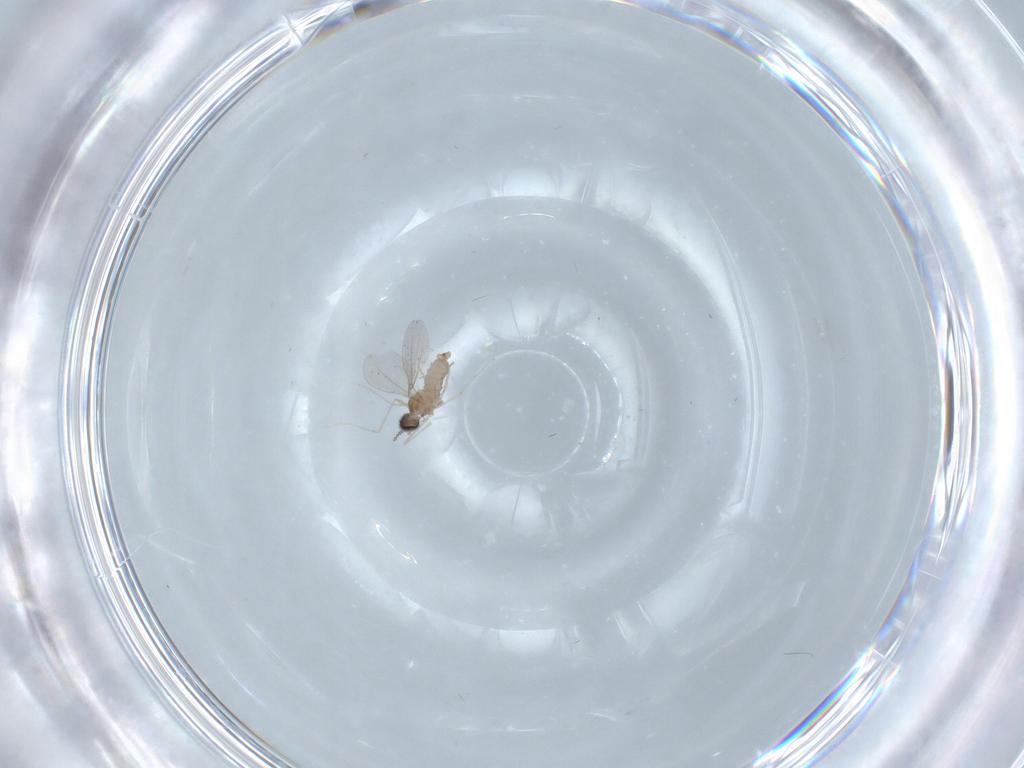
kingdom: Animalia
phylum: Arthropoda
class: Insecta
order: Diptera
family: Cecidomyiidae
